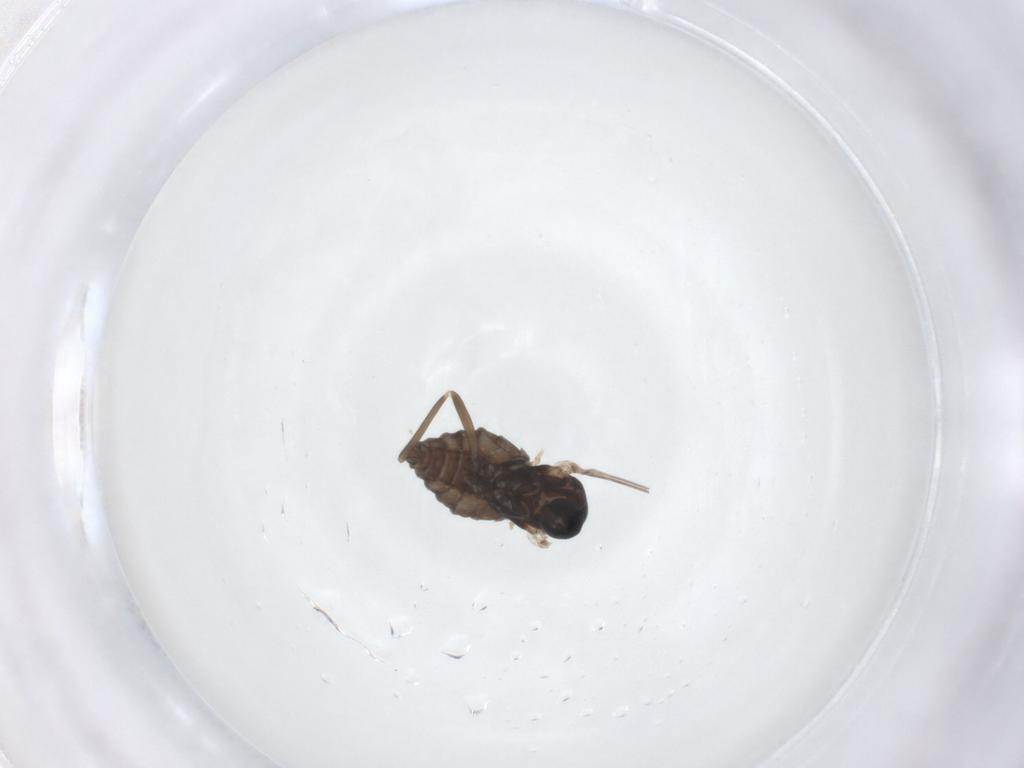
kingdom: Animalia
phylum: Arthropoda
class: Insecta
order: Diptera
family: Cecidomyiidae
